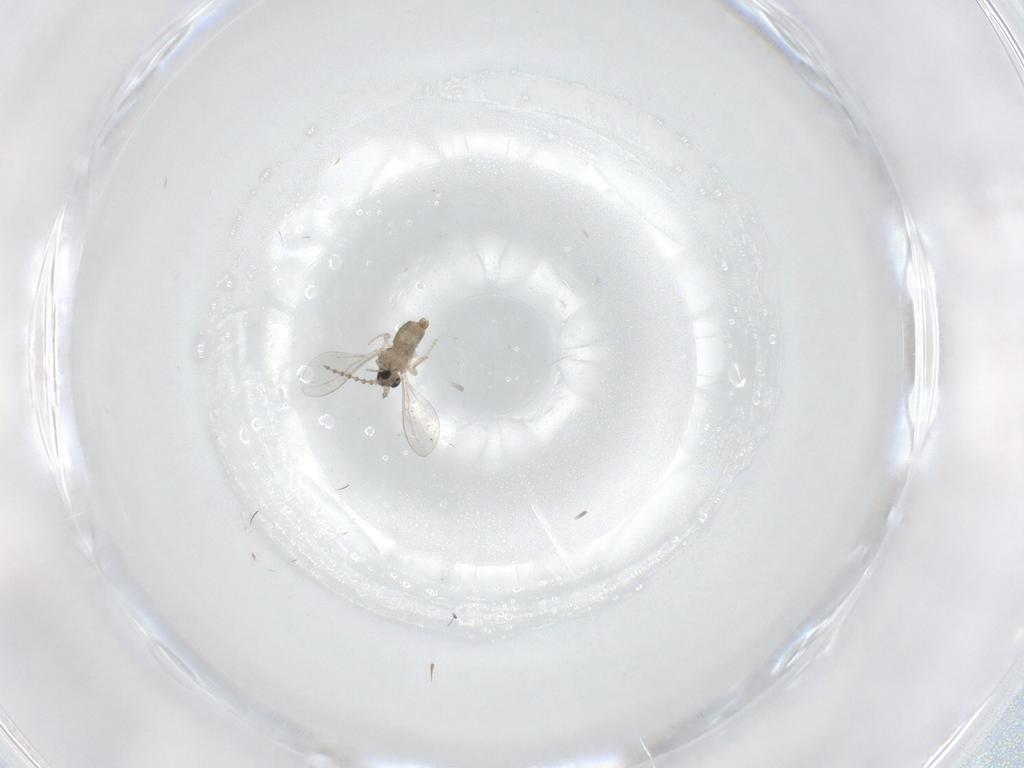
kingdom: Animalia
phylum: Arthropoda
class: Insecta
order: Diptera
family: Cecidomyiidae
